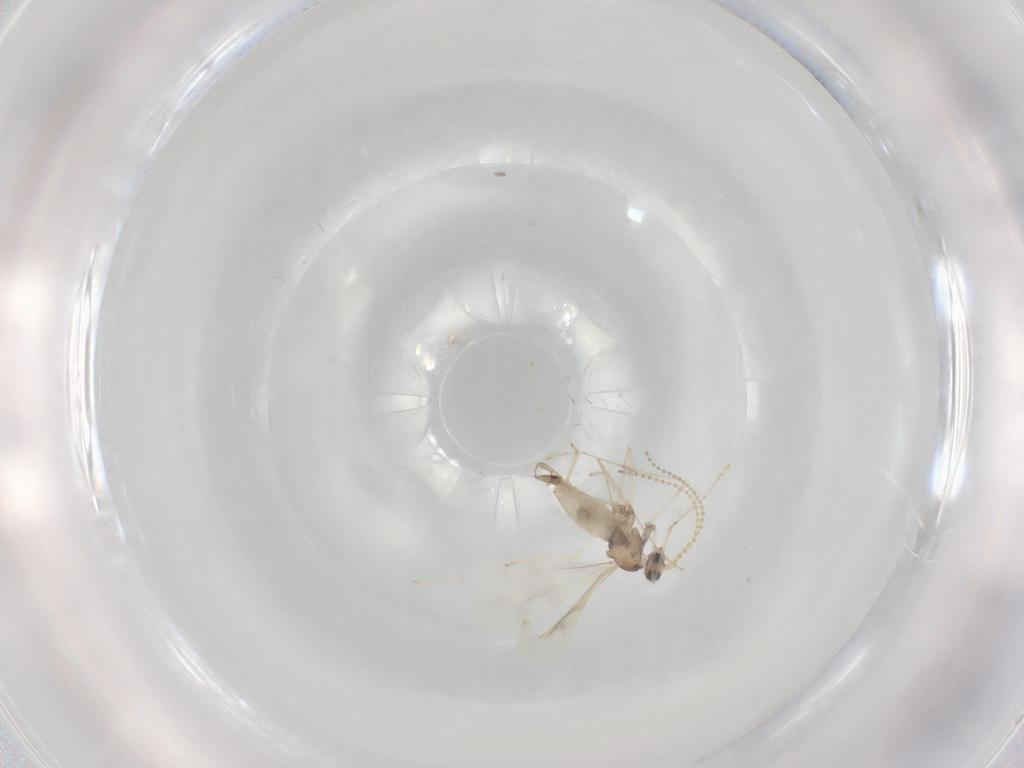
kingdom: Animalia
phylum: Arthropoda
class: Insecta
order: Diptera
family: Cecidomyiidae
